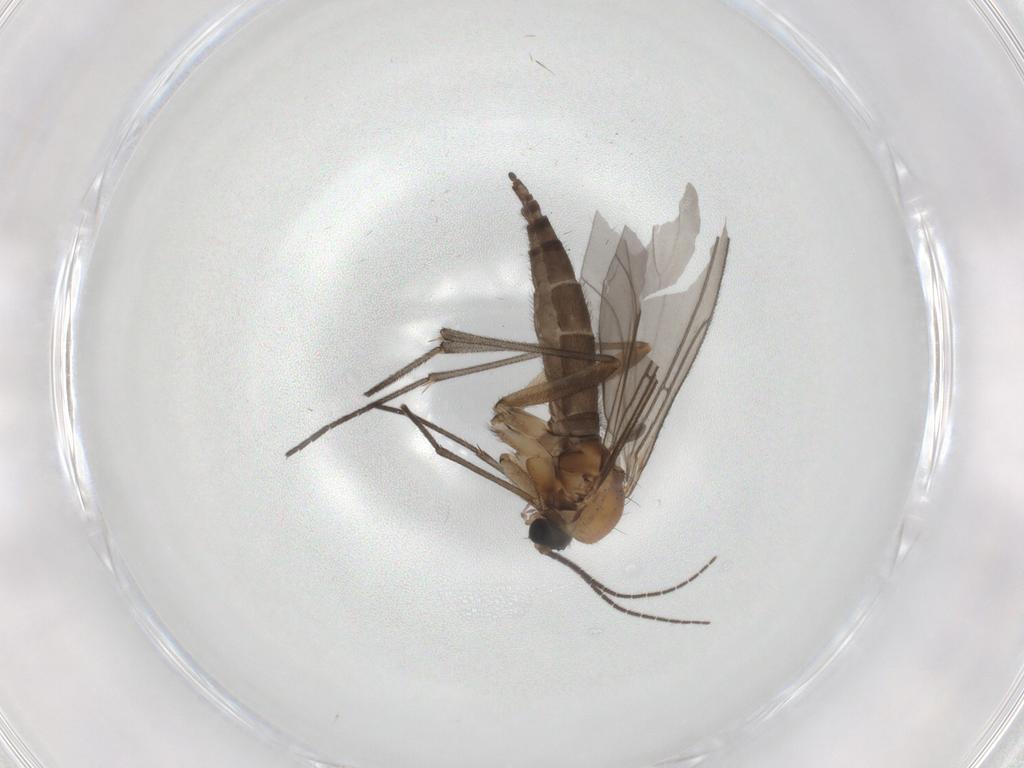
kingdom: Animalia
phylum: Arthropoda
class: Insecta
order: Diptera
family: Sciaridae
